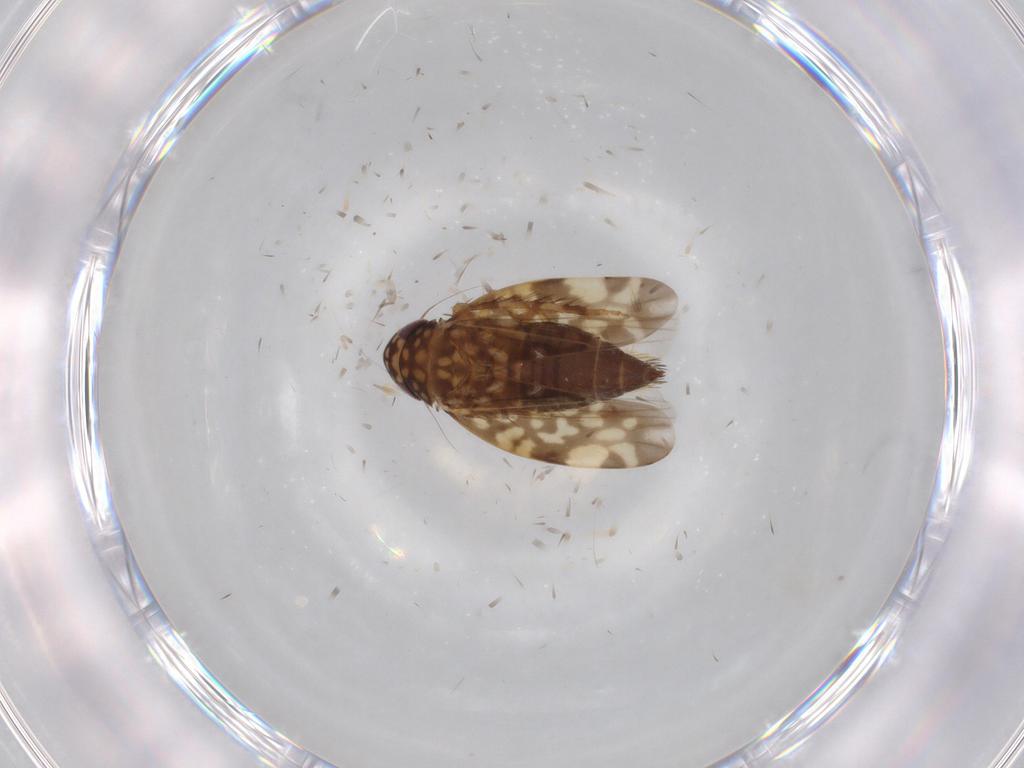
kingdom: Animalia
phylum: Arthropoda
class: Insecta
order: Hemiptera
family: Cicadellidae
